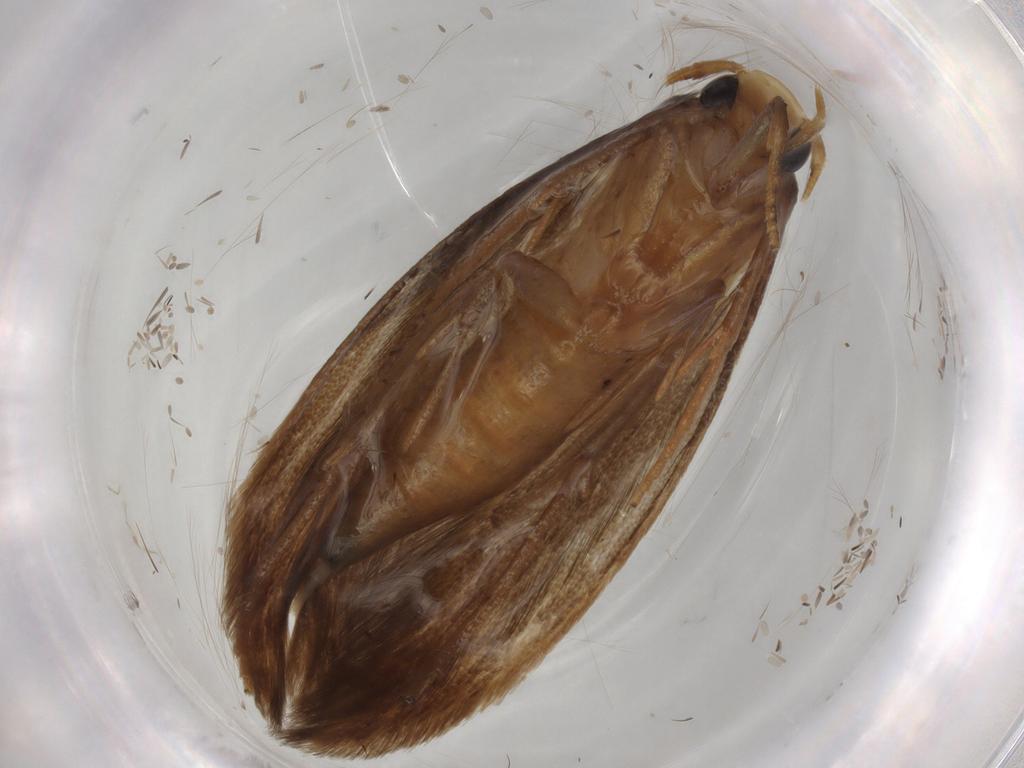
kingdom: Animalia
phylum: Arthropoda
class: Insecta
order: Lepidoptera
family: Tineidae
